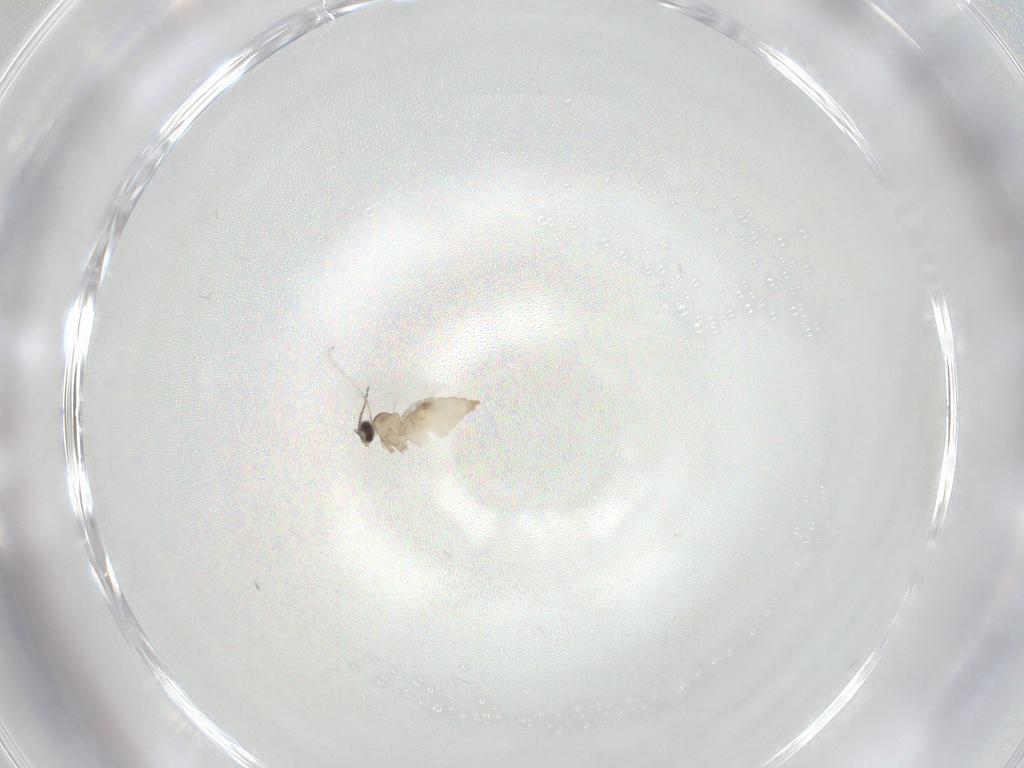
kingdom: Animalia
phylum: Arthropoda
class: Insecta
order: Diptera
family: Cecidomyiidae
